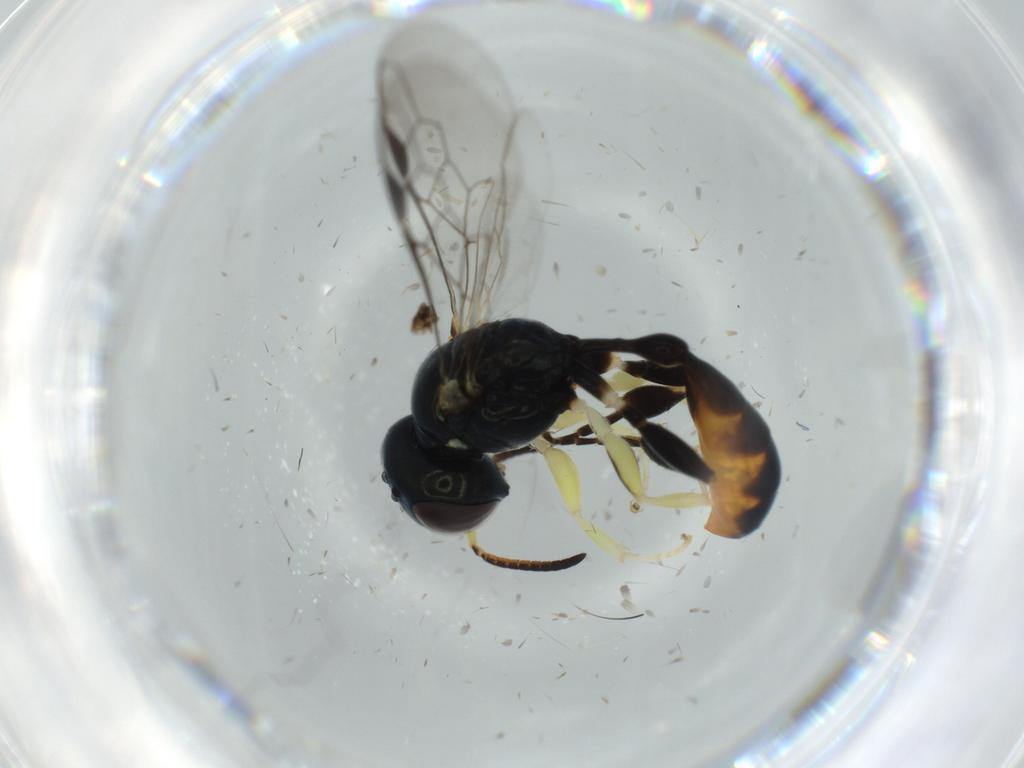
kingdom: Animalia
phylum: Arthropoda
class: Insecta
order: Hymenoptera
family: Crabronidae
